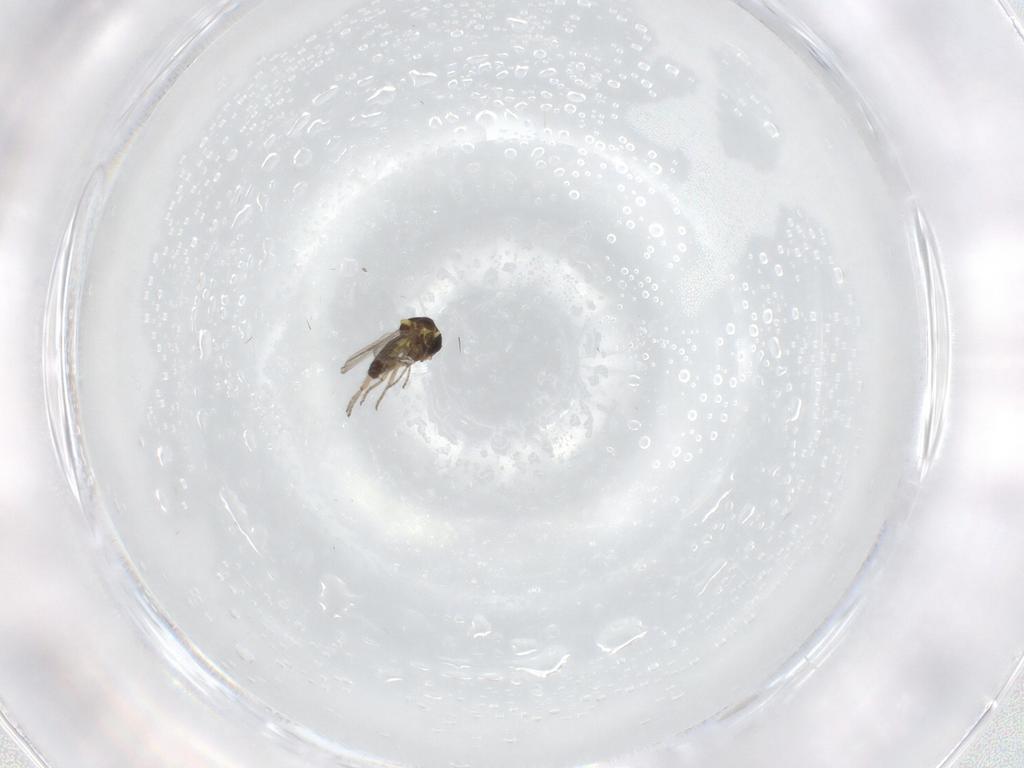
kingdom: Animalia
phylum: Arthropoda
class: Insecta
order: Diptera
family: Ceratopogonidae
